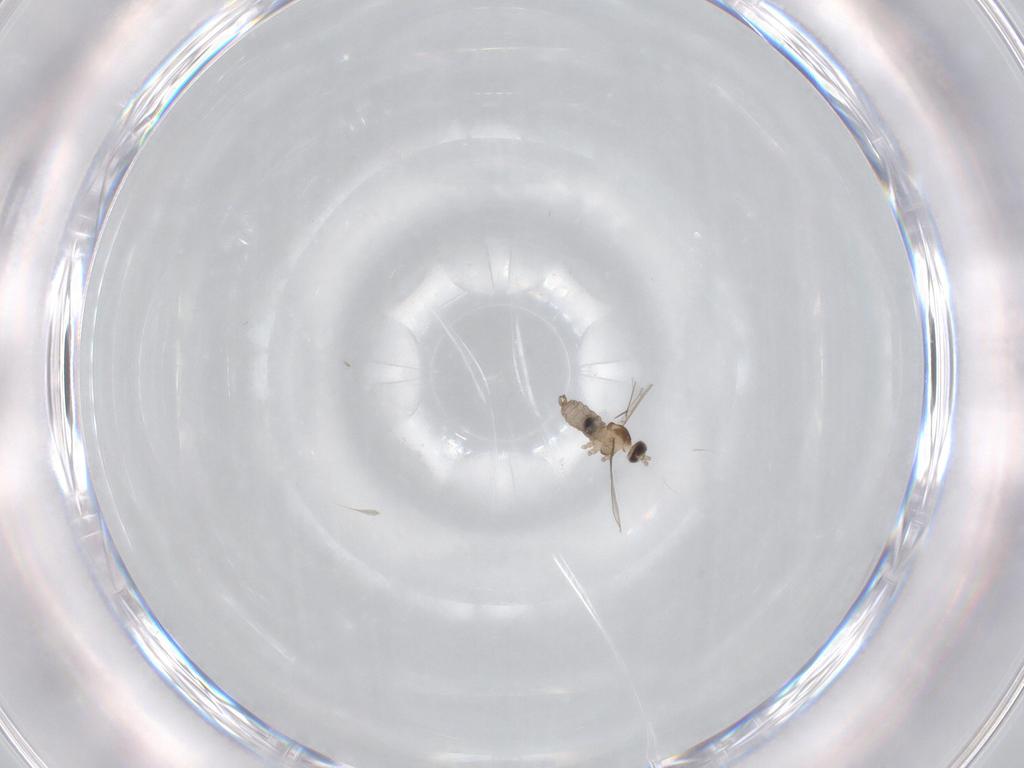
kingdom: Animalia
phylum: Arthropoda
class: Insecta
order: Diptera
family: Cecidomyiidae
